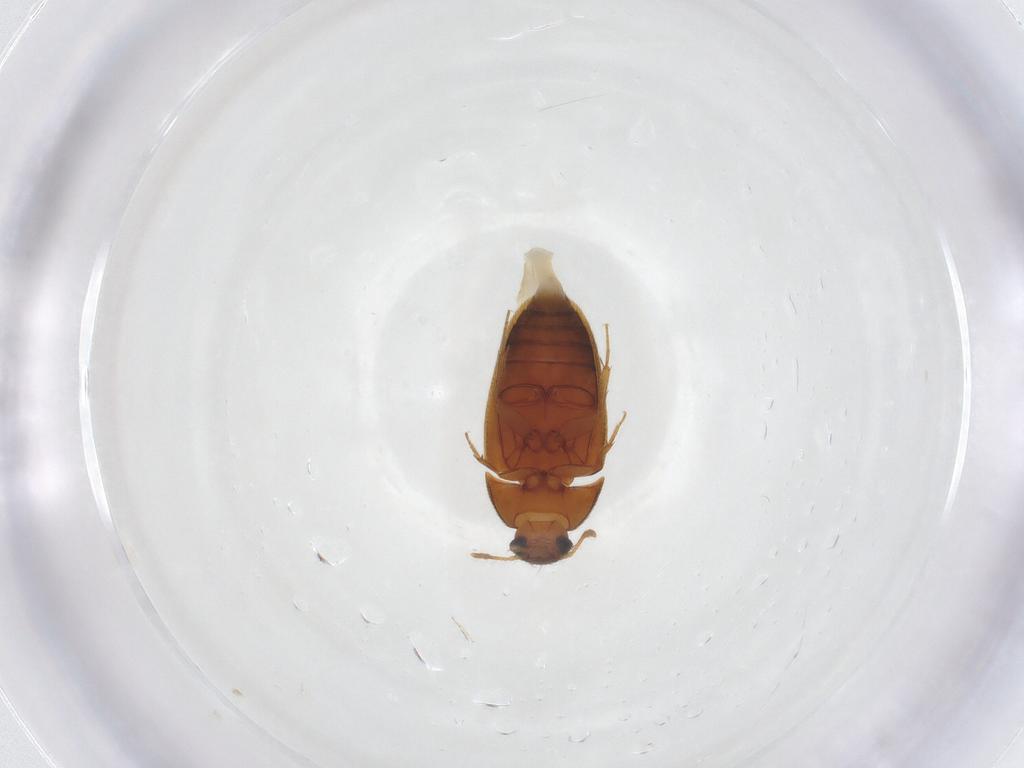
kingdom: Animalia
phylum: Arthropoda
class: Insecta
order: Coleoptera
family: Mycetophagidae
